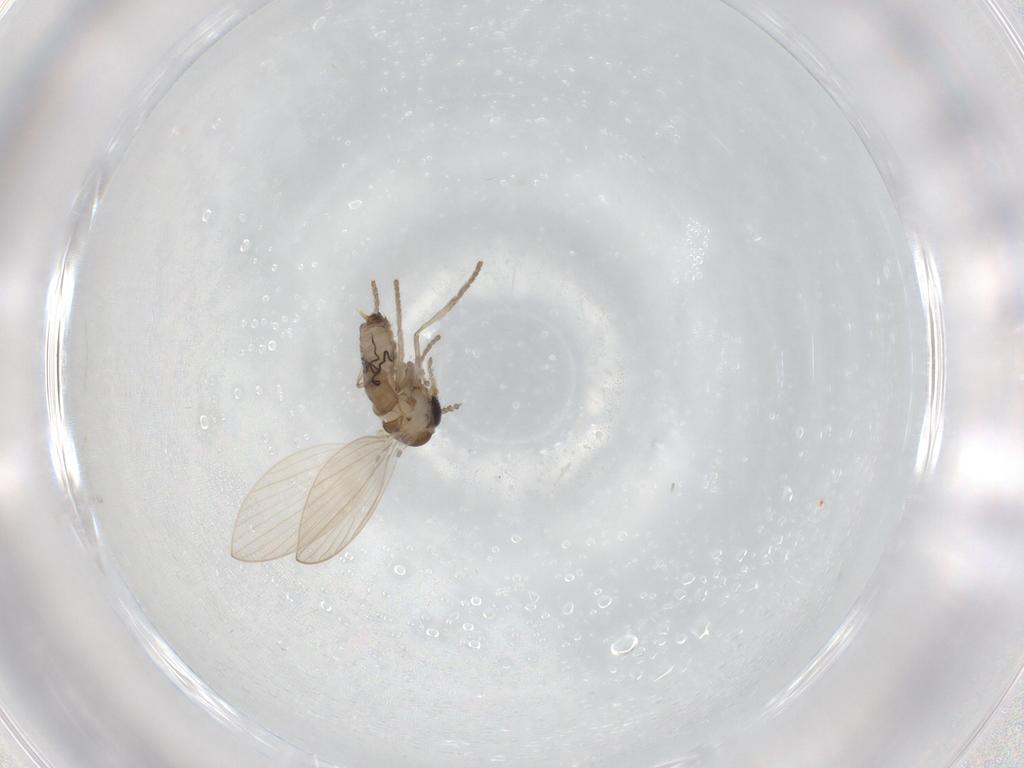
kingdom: Animalia
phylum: Arthropoda
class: Insecta
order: Diptera
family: Psychodidae
